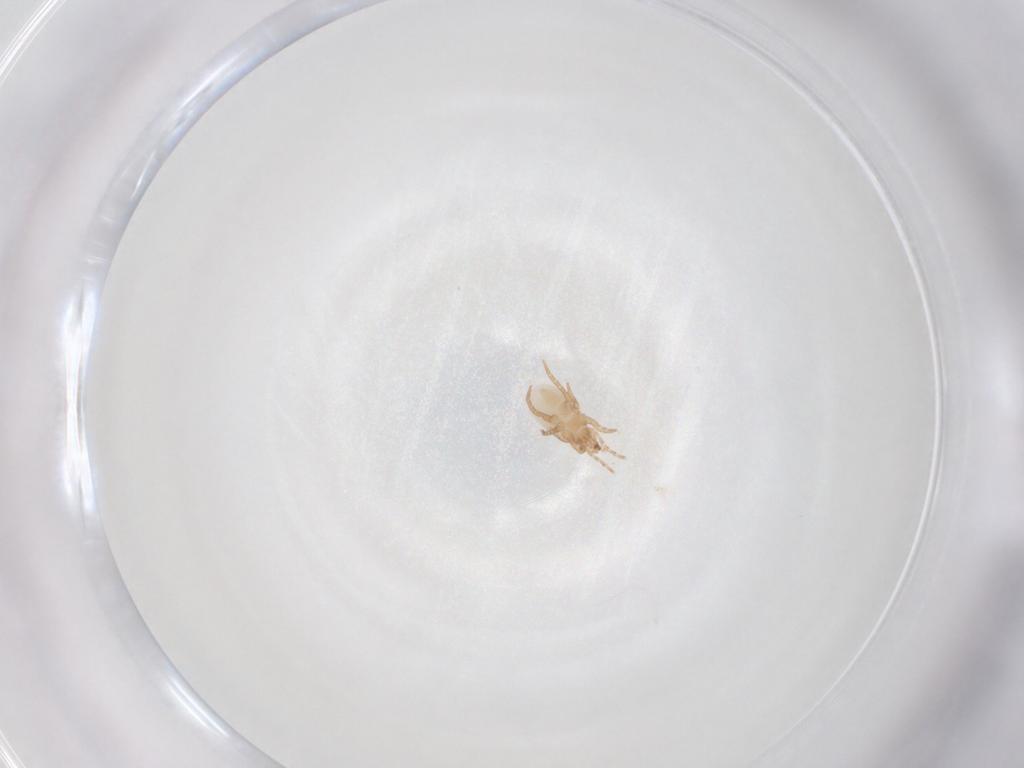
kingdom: Animalia
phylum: Arthropoda
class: Arachnida
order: Mesostigmata
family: Macrochelidae
